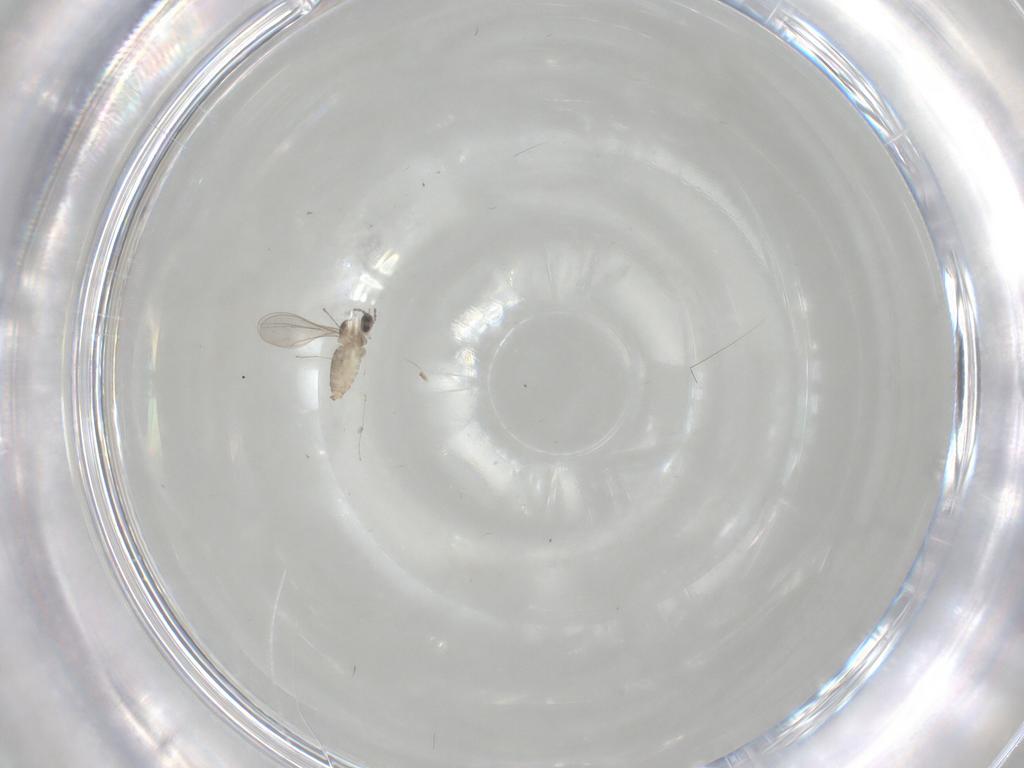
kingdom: Animalia
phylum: Arthropoda
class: Insecta
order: Diptera
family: Cecidomyiidae
